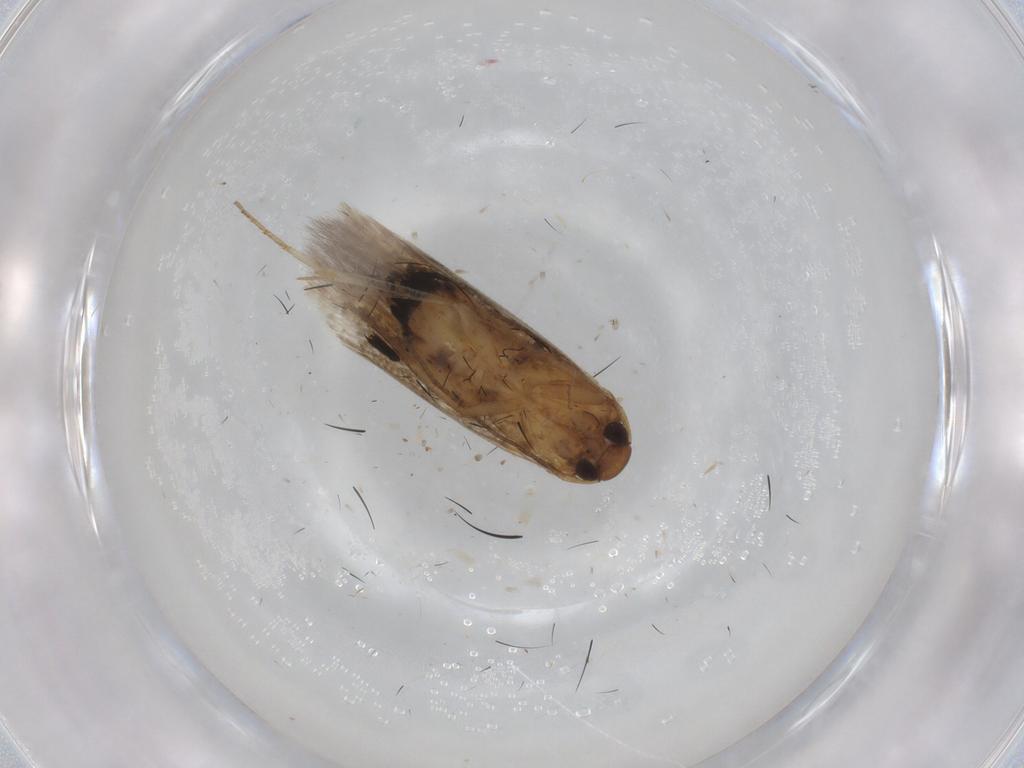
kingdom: Animalia
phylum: Arthropoda
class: Insecta
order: Lepidoptera
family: Cosmopterigidae
